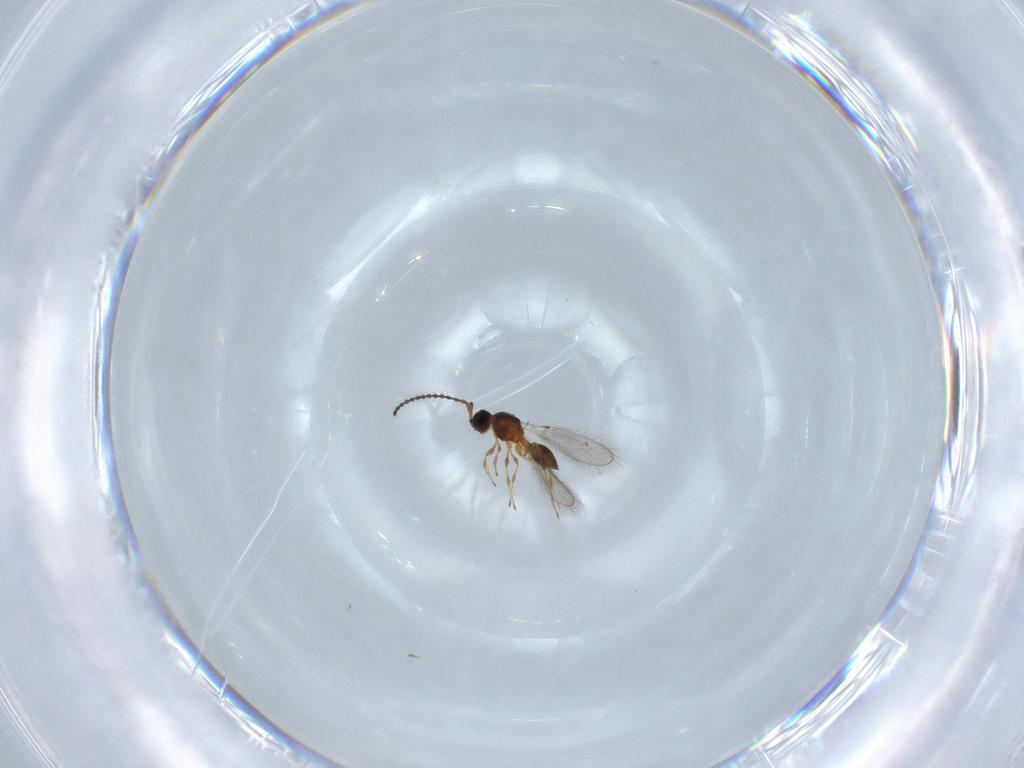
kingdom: Animalia
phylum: Arthropoda
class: Insecta
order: Hymenoptera
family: Diapriidae
